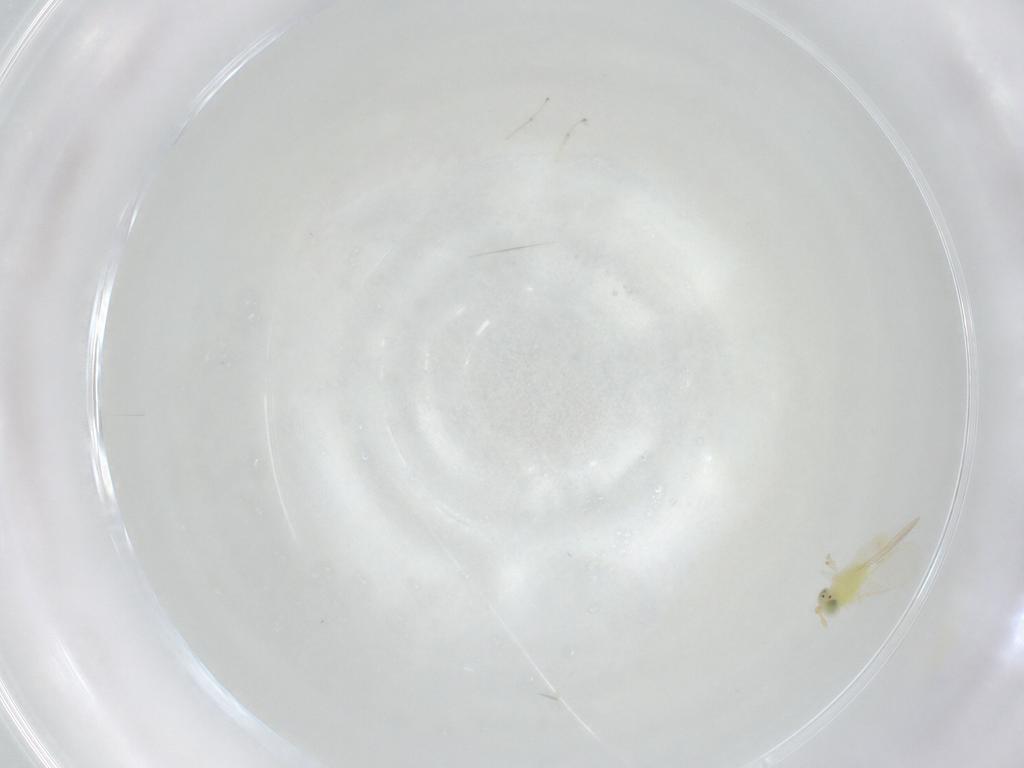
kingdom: Animalia
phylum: Arthropoda
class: Insecta
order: Hymenoptera
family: Aphelinidae
